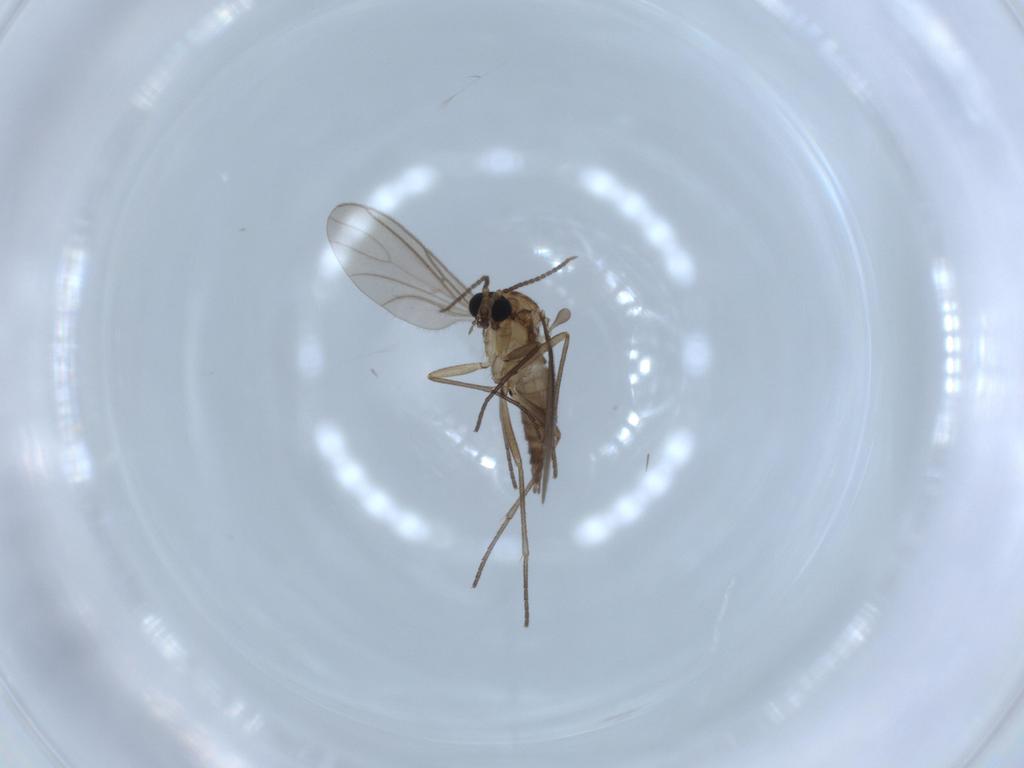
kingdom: Animalia
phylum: Arthropoda
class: Insecta
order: Diptera
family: Sciaridae
